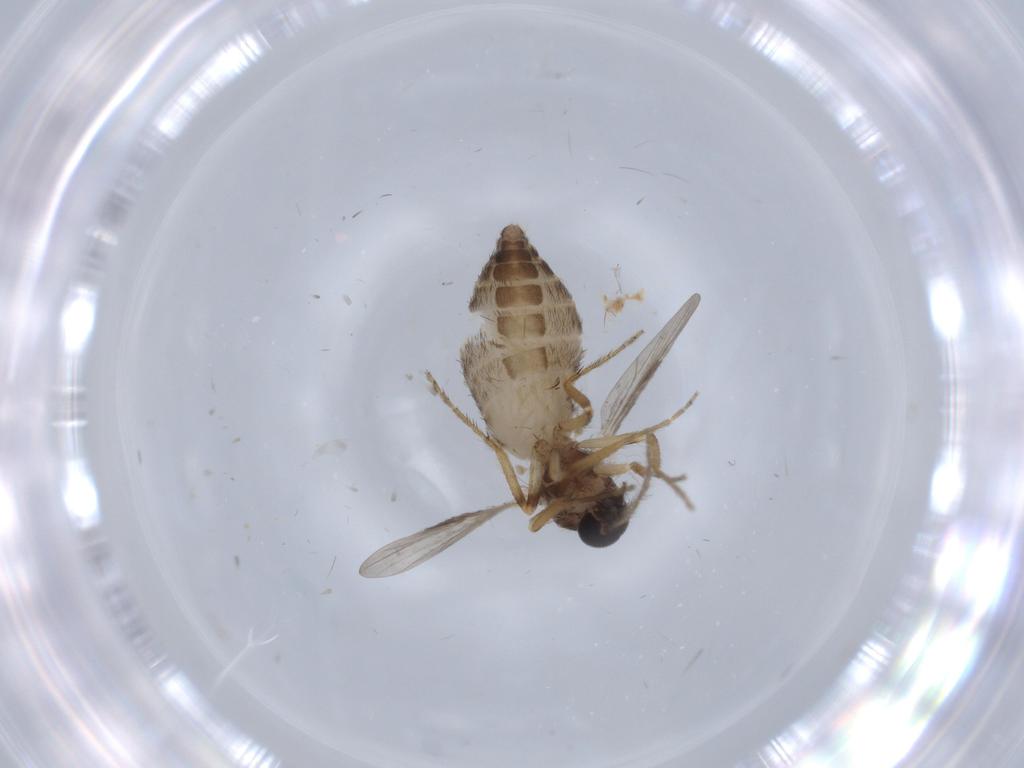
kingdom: Animalia
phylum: Arthropoda
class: Insecta
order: Diptera
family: Ceratopogonidae
